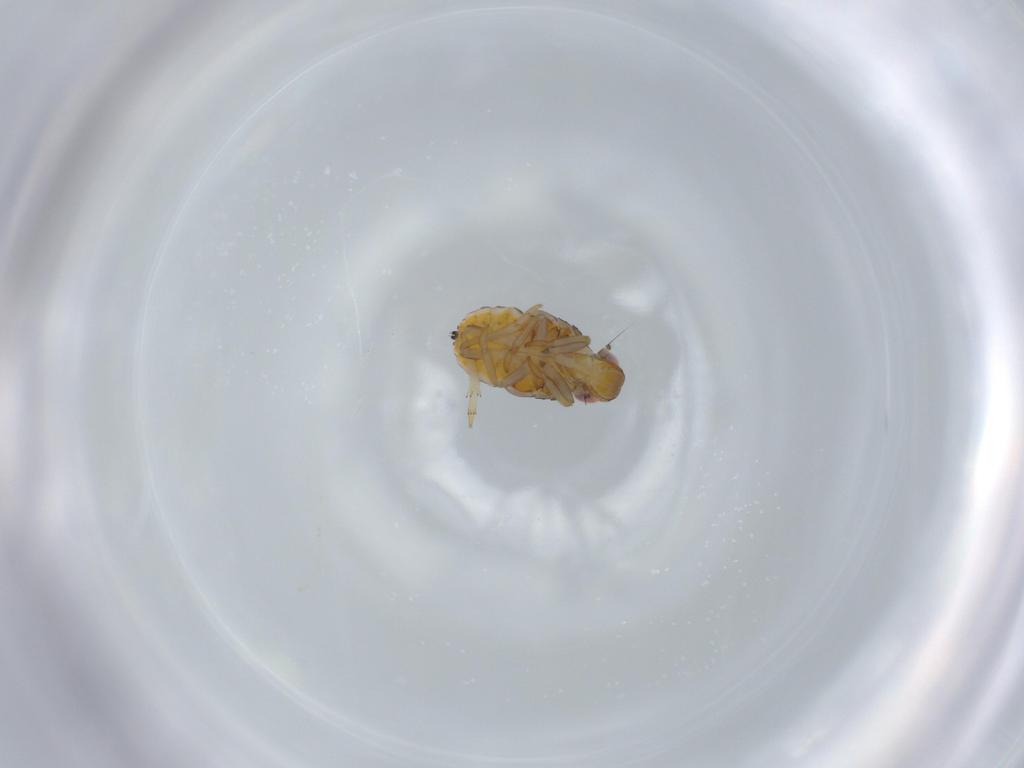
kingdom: Animalia
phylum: Arthropoda
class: Insecta
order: Hemiptera
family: Issidae
